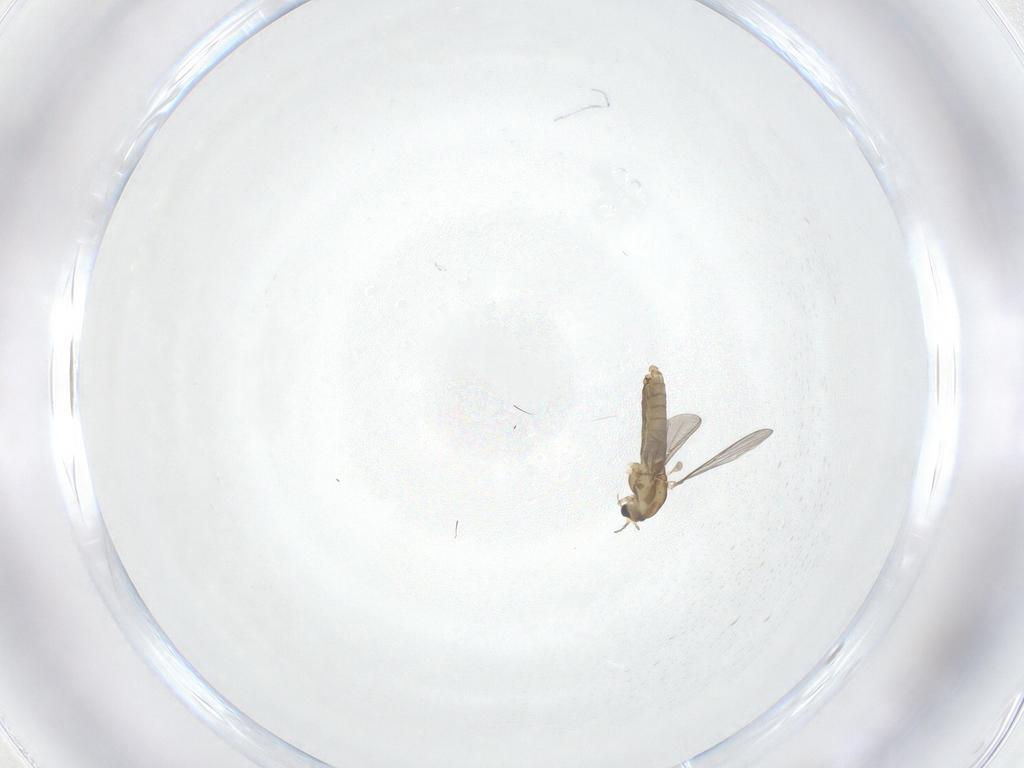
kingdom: Animalia
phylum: Arthropoda
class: Insecta
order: Diptera
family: Chironomidae
